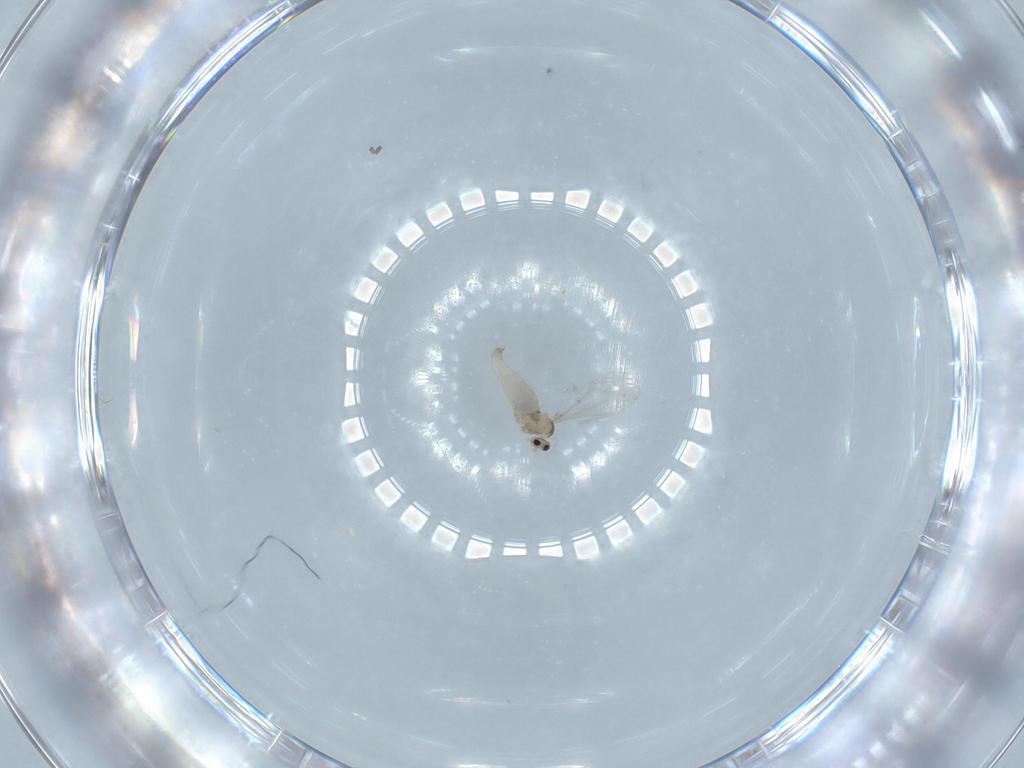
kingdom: Animalia
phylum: Arthropoda
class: Insecta
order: Diptera
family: Cecidomyiidae
